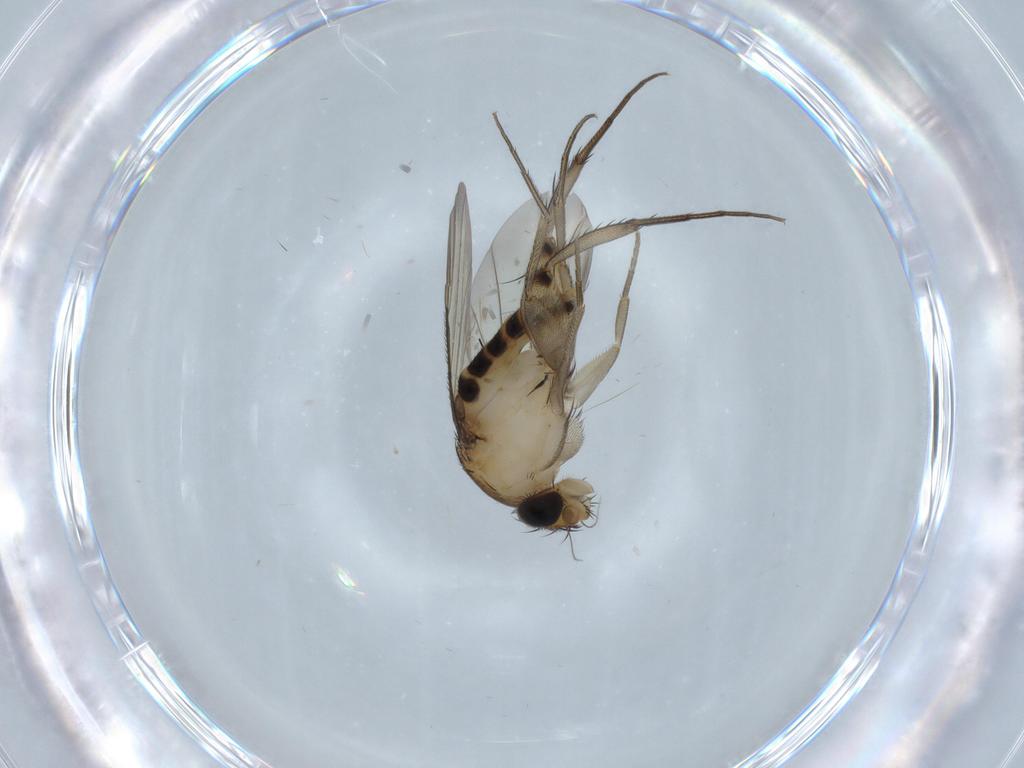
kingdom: Animalia
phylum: Arthropoda
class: Insecta
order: Diptera
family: Phoridae
